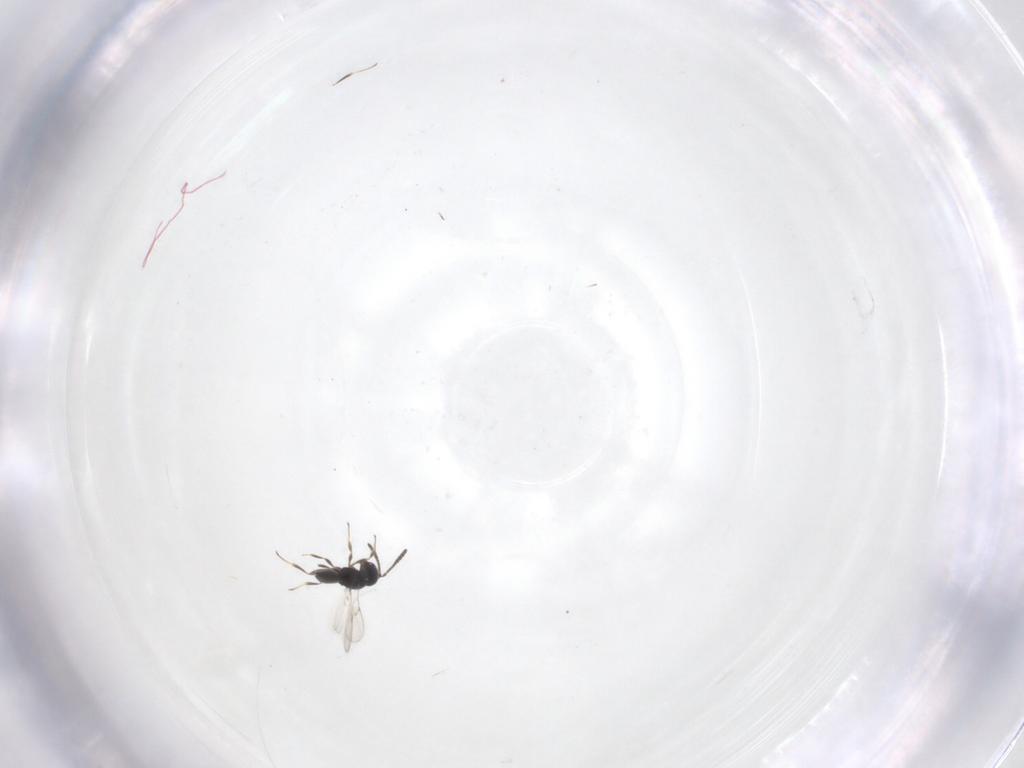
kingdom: Animalia
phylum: Arthropoda
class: Insecta
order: Hymenoptera
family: Scelionidae
